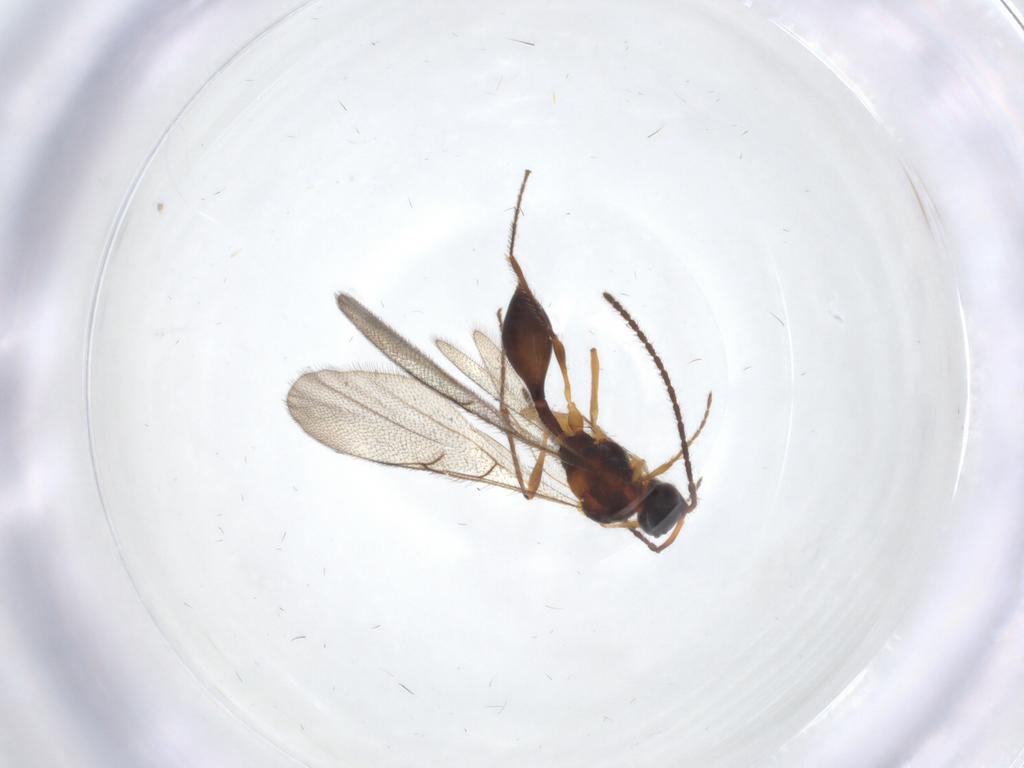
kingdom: Animalia
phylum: Arthropoda
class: Insecta
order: Hymenoptera
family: Diapriidae
